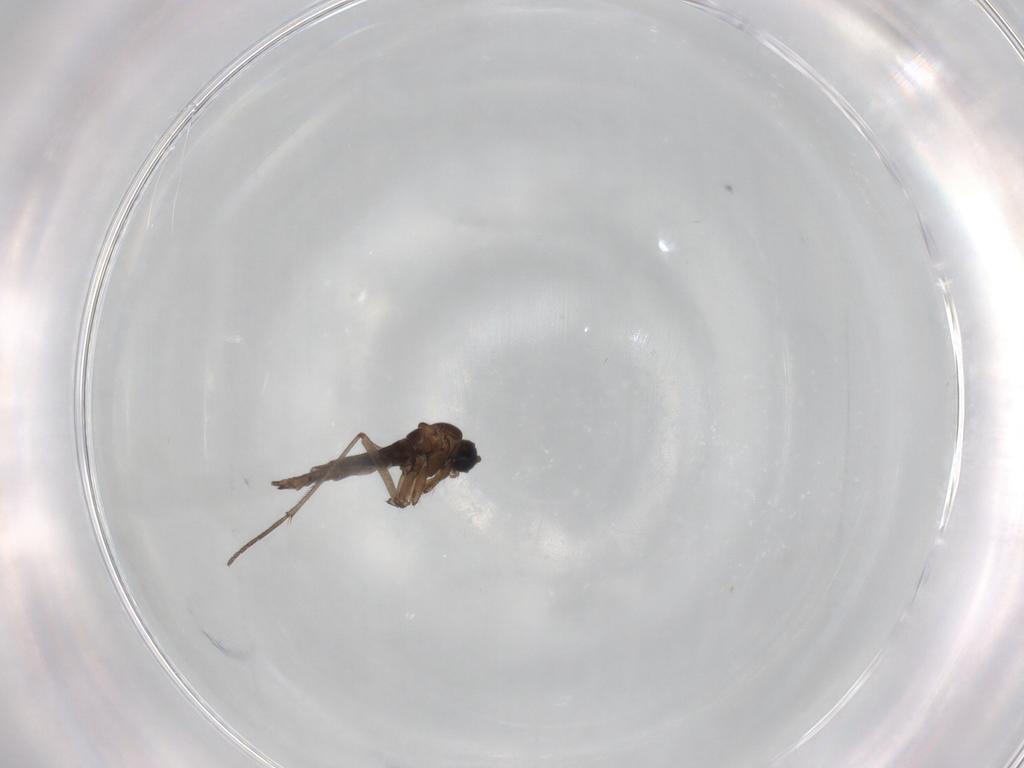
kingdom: Animalia
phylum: Arthropoda
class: Insecta
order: Diptera
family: Sciaridae
